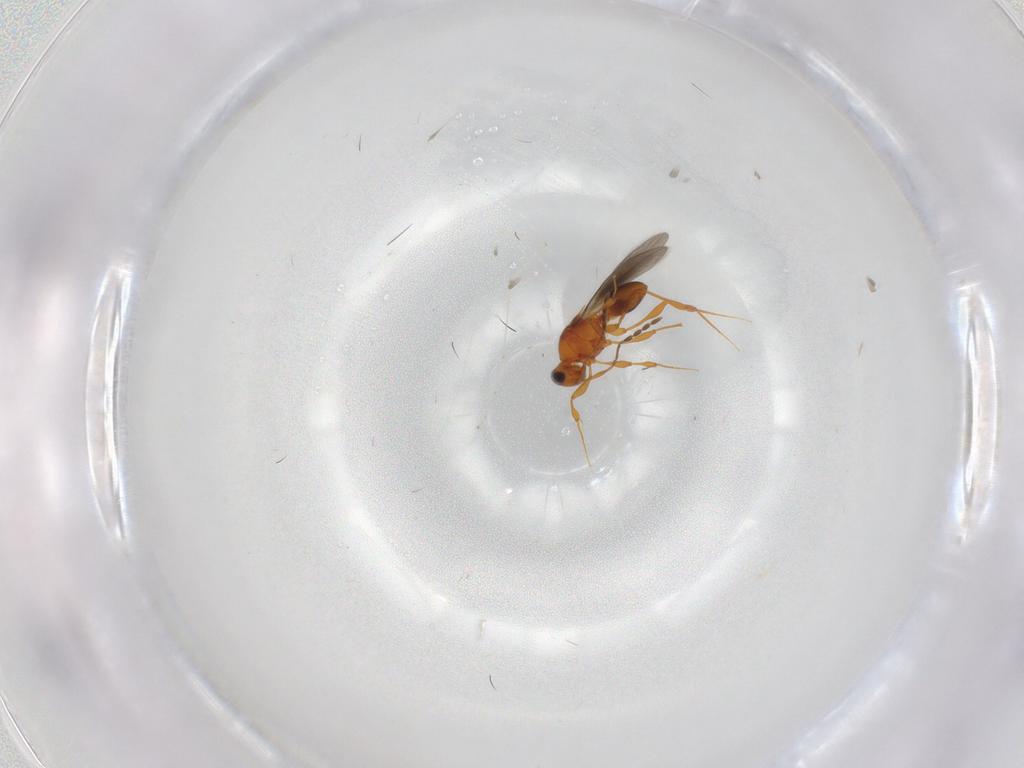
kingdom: Animalia
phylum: Arthropoda
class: Insecta
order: Hymenoptera
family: Platygastridae
